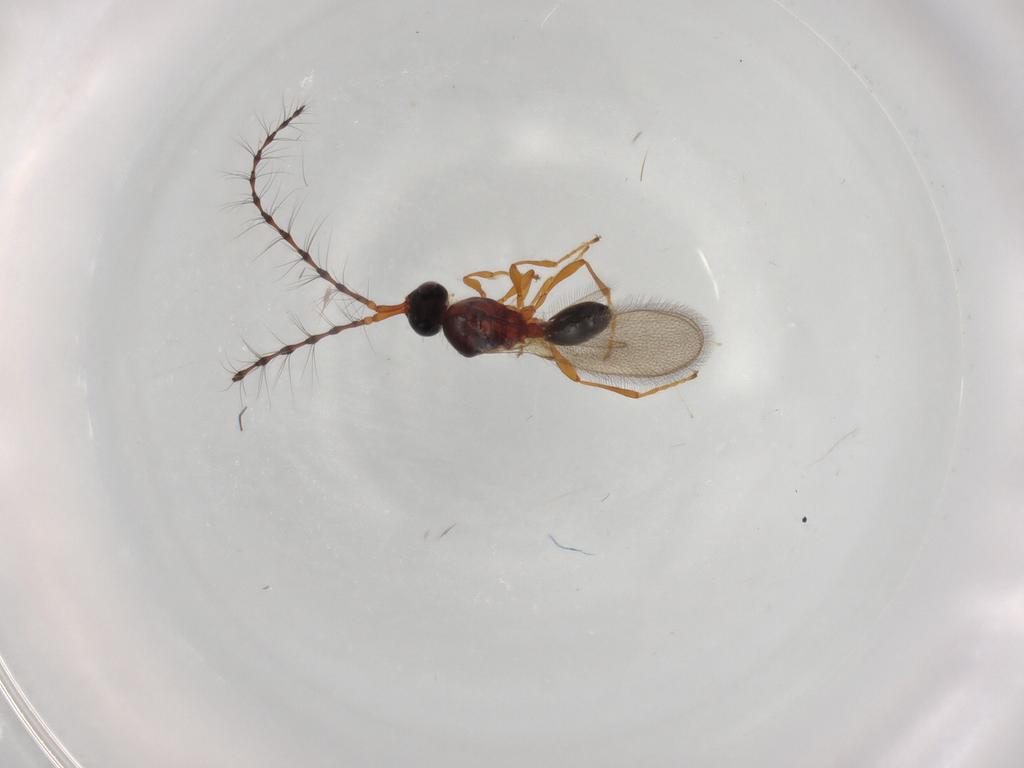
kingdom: Animalia
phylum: Arthropoda
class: Insecta
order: Hymenoptera
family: Diapriidae
